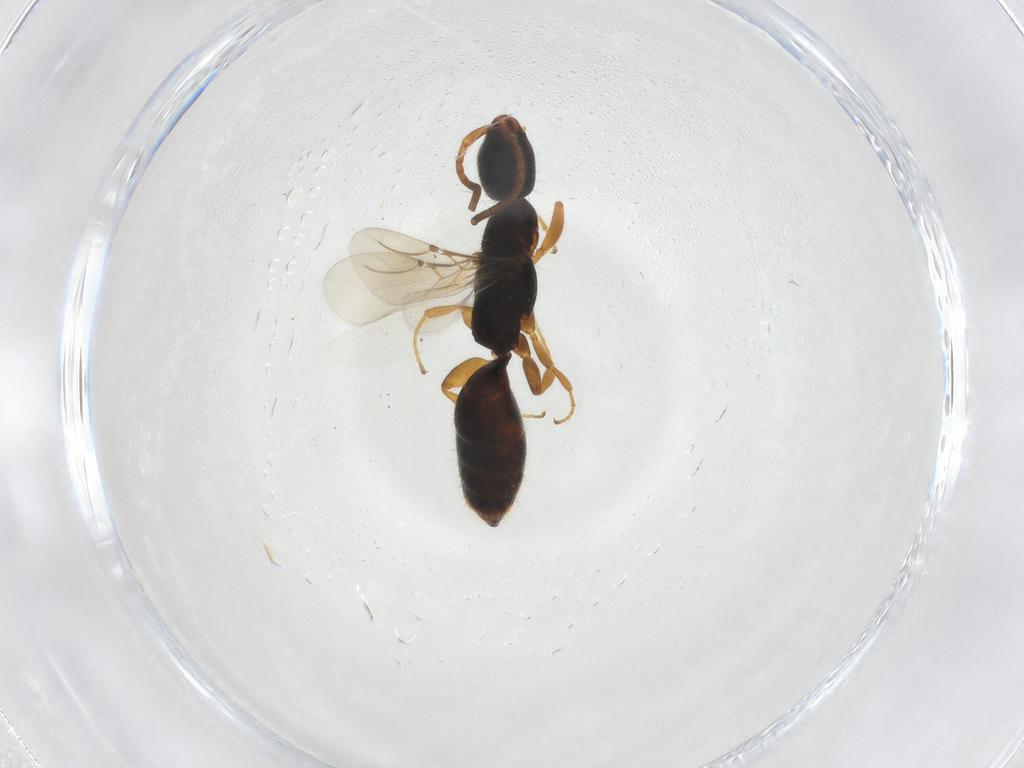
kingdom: Animalia
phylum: Arthropoda
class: Insecta
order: Hymenoptera
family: Bethylidae
